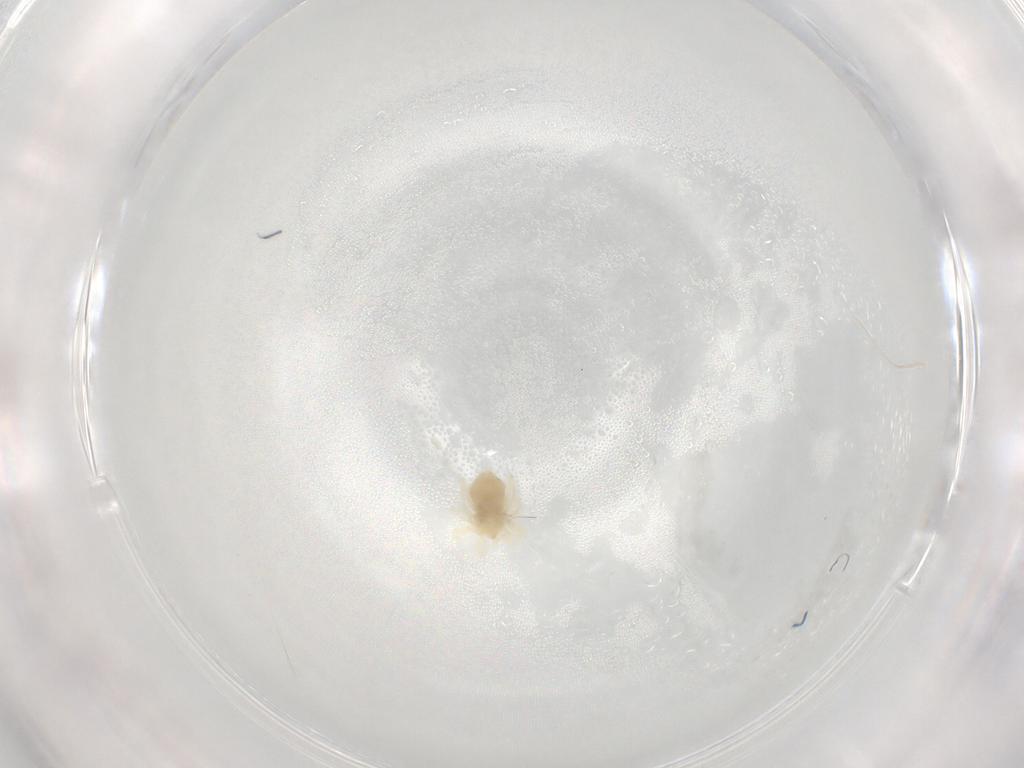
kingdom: Animalia
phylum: Arthropoda
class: Arachnida
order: Trombidiformes
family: Eupodidae
